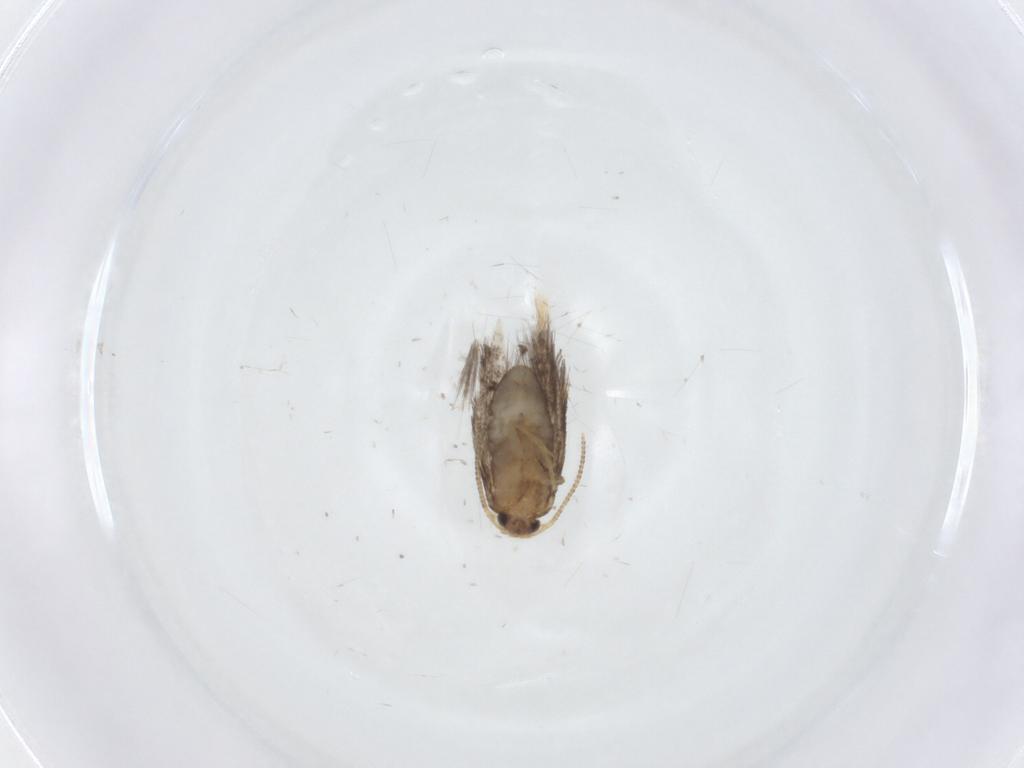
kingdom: Animalia
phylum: Arthropoda
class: Insecta
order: Lepidoptera
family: Nepticulidae
